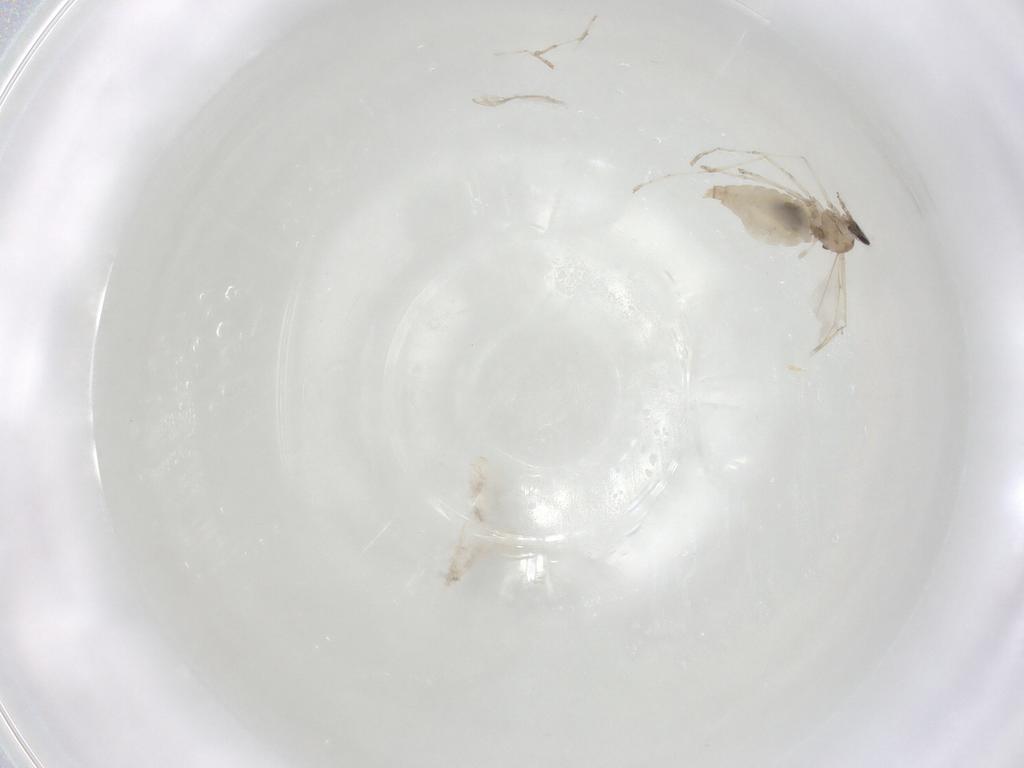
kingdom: Animalia
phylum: Arthropoda
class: Insecta
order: Diptera
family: Cecidomyiidae
